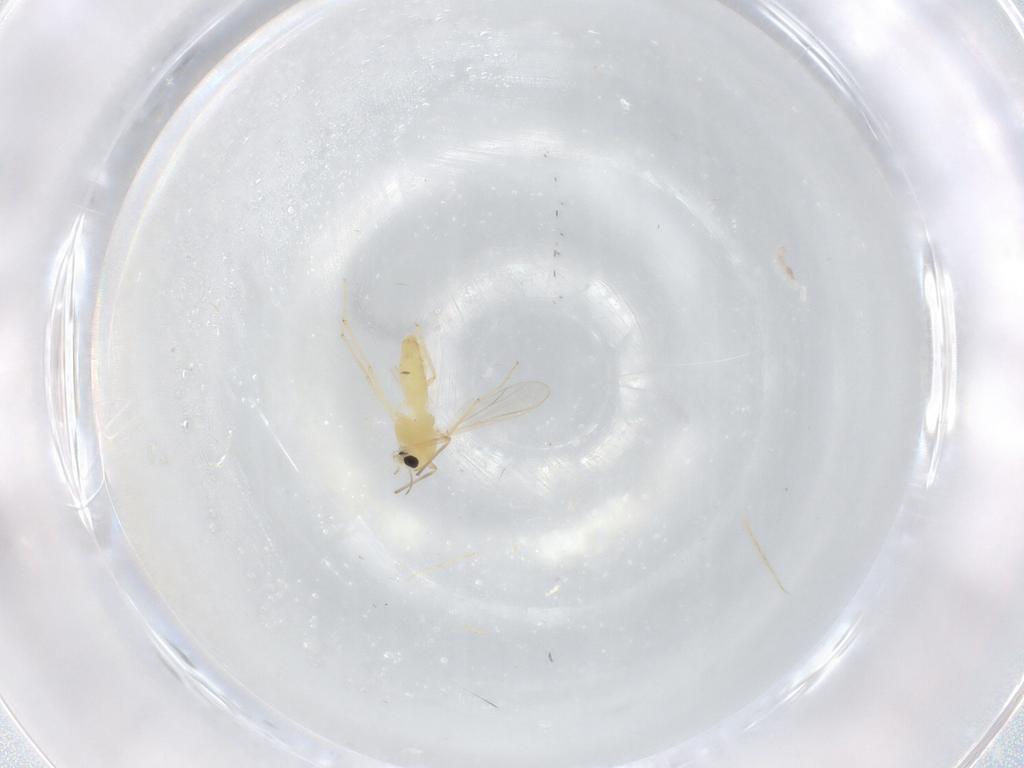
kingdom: Animalia
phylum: Arthropoda
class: Insecta
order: Diptera
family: Chironomidae
